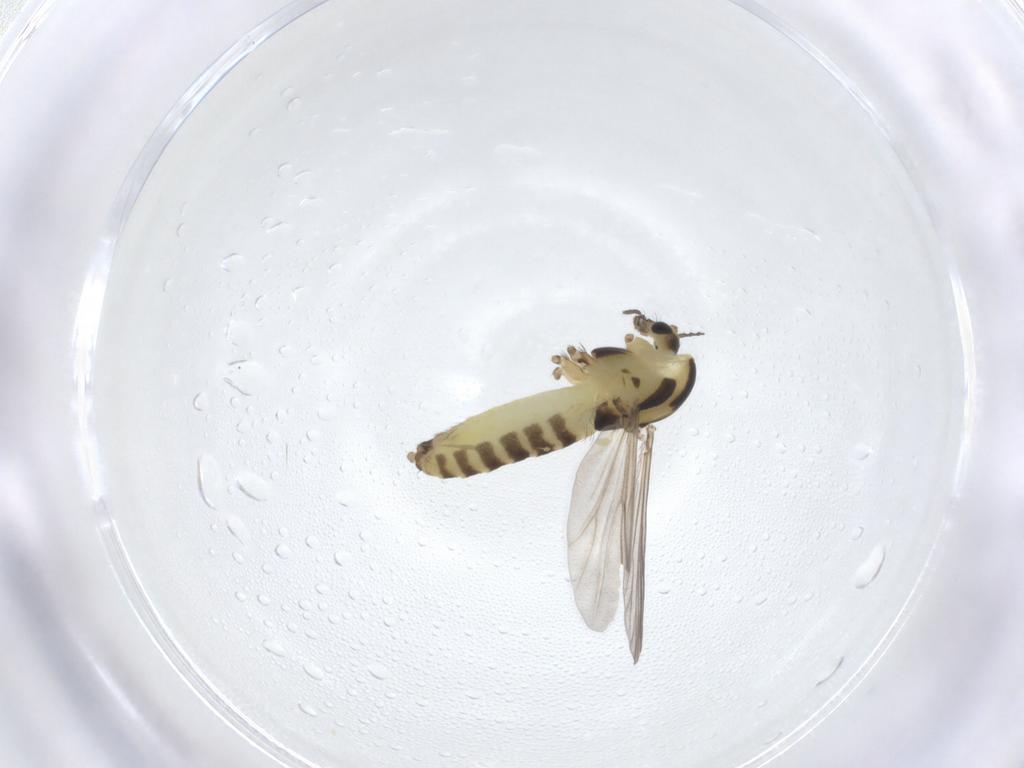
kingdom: Animalia
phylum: Arthropoda
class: Insecta
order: Diptera
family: Chironomidae
